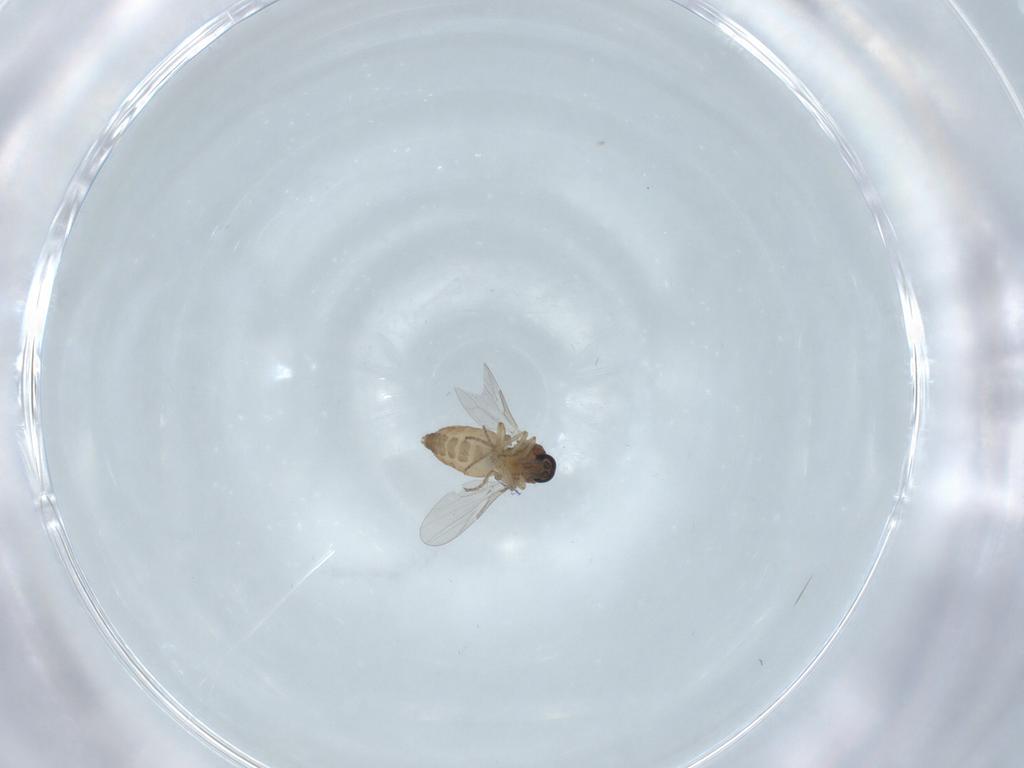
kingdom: Animalia
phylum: Arthropoda
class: Insecta
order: Diptera
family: Ceratopogonidae
